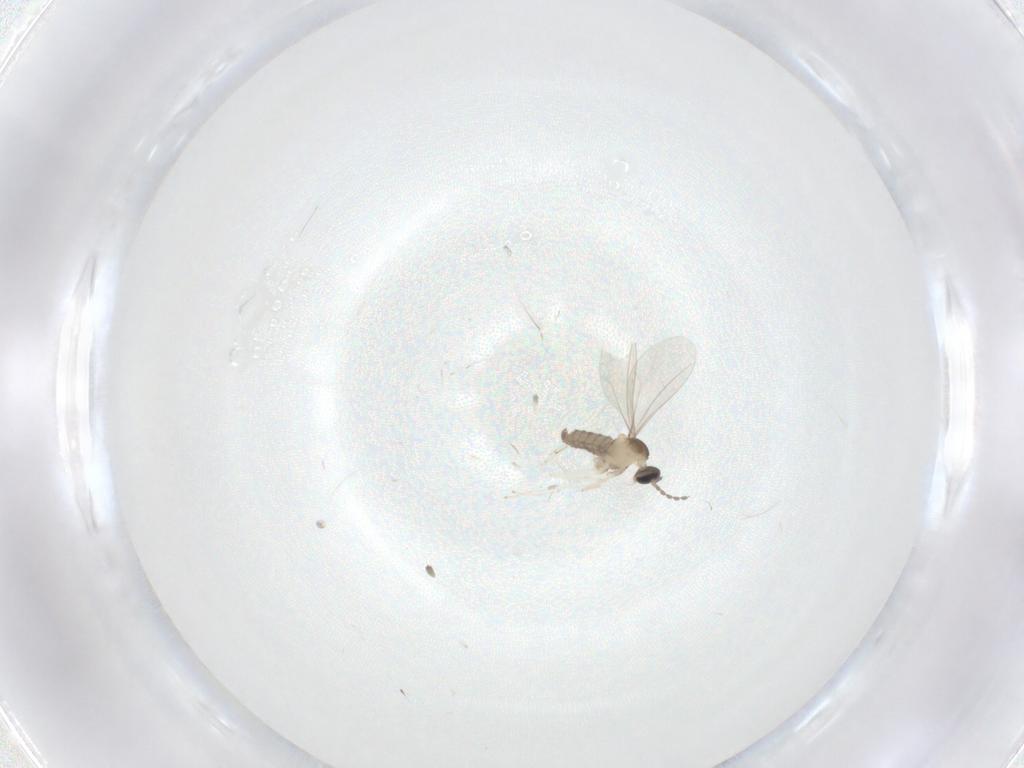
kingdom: Animalia
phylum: Arthropoda
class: Insecta
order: Diptera
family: Cecidomyiidae
